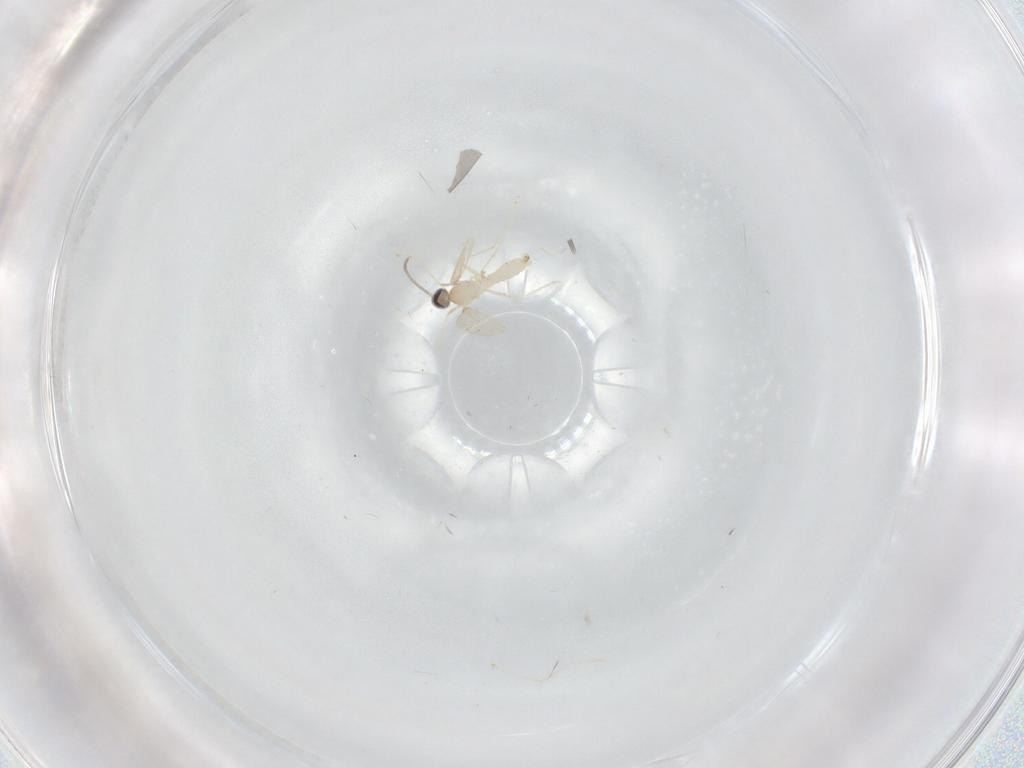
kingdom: Animalia
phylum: Arthropoda
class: Insecta
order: Diptera
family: Cecidomyiidae
